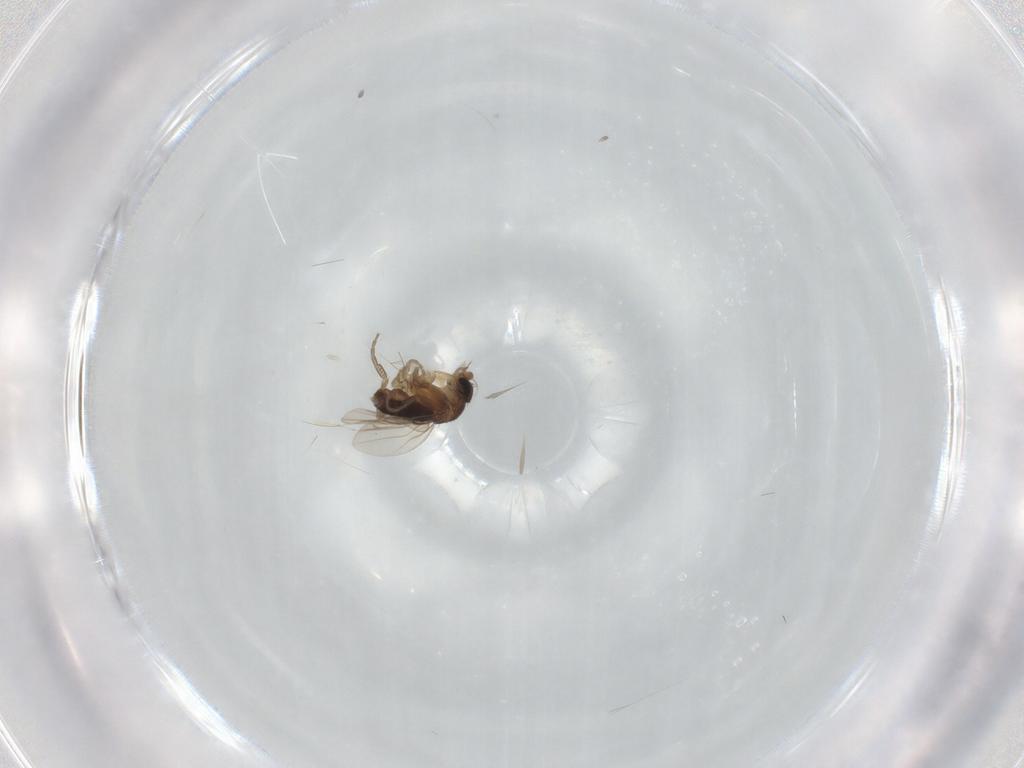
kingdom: Animalia
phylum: Arthropoda
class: Insecta
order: Diptera
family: Phoridae
